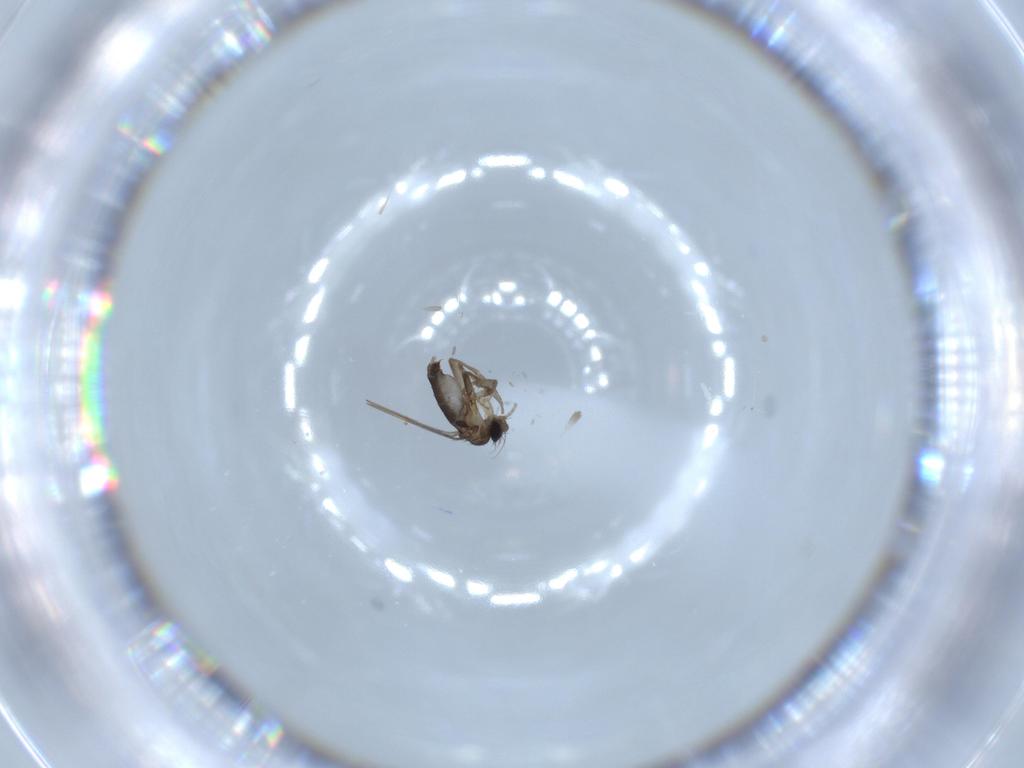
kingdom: Animalia
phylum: Arthropoda
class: Insecta
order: Diptera
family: Phoridae
